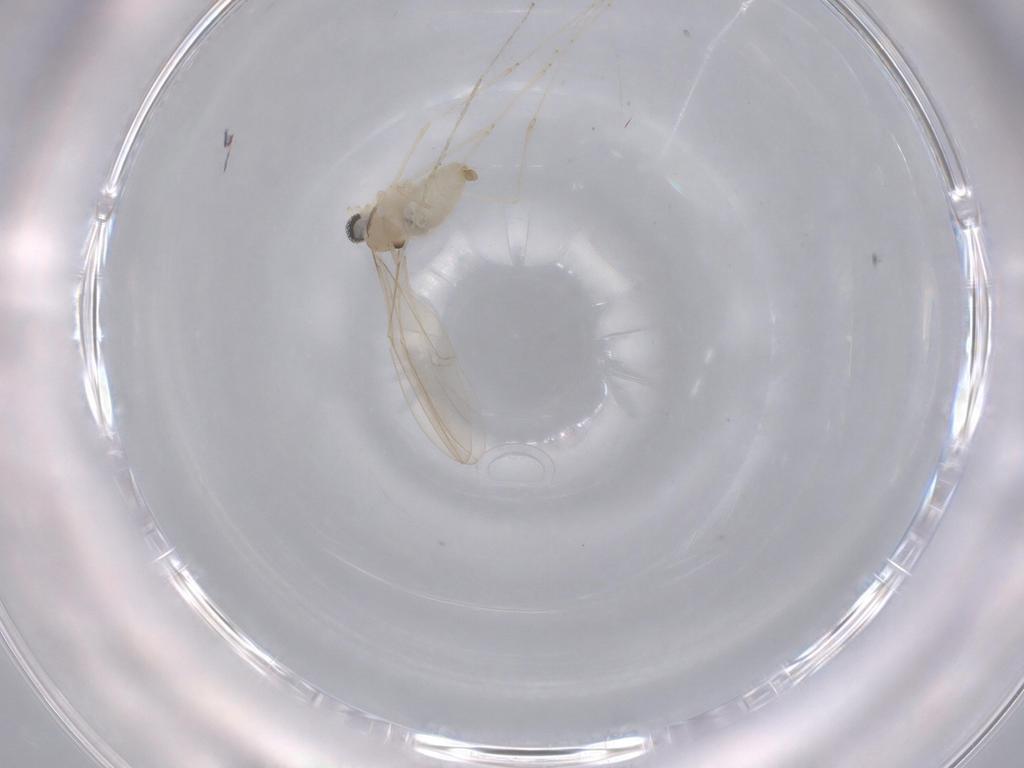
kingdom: Animalia
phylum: Arthropoda
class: Insecta
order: Diptera
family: Cecidomyiidae
